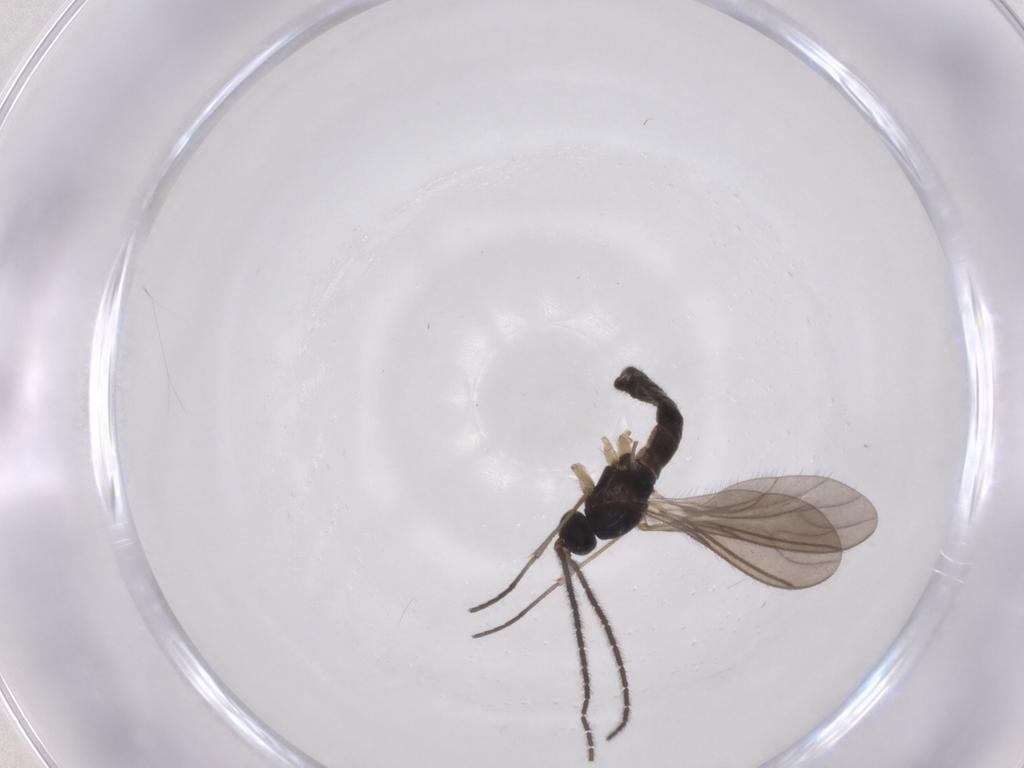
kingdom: Animalia
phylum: Arthropoda
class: Insecta
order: Diptera
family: Sciaridae
